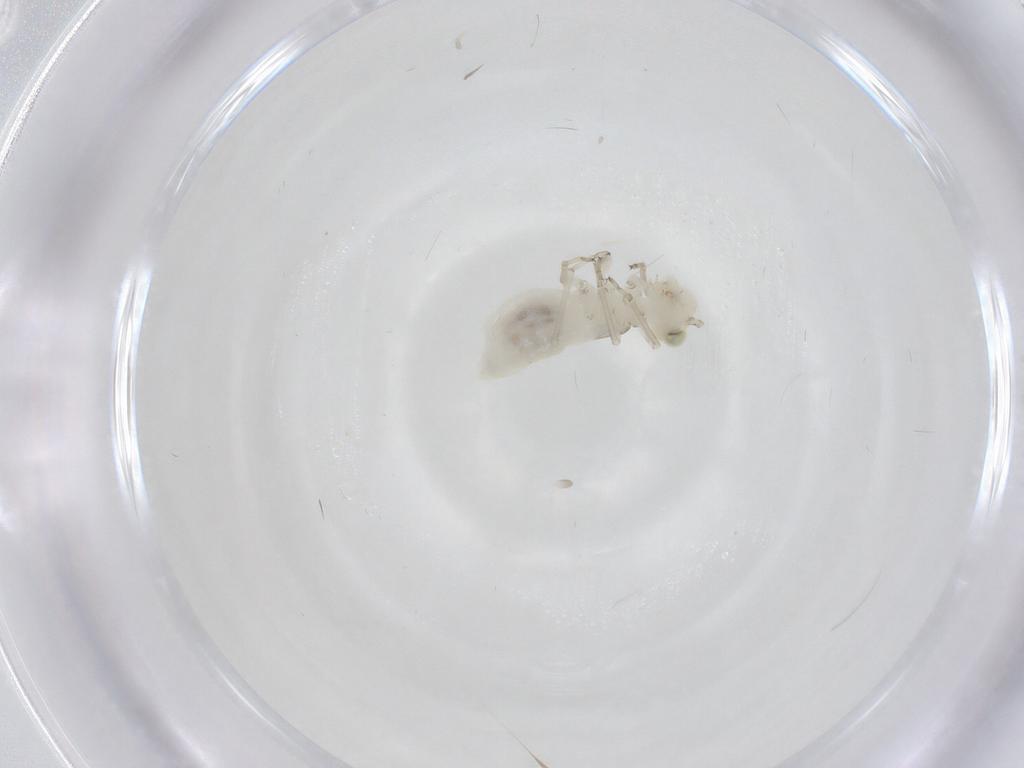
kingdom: Animalia
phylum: Arthropoda
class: Insecta
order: Psocodea
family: Caeciliusidae
